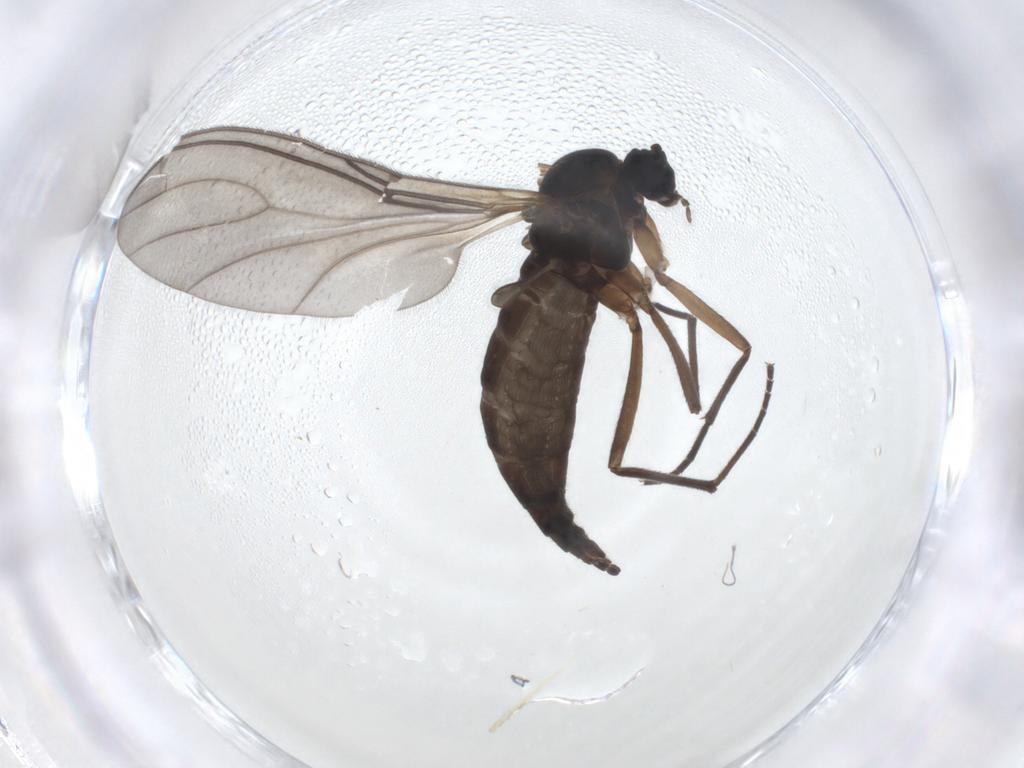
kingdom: Animalia
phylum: Arthropoda
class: Insecta
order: Diptera
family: Sciaridae
